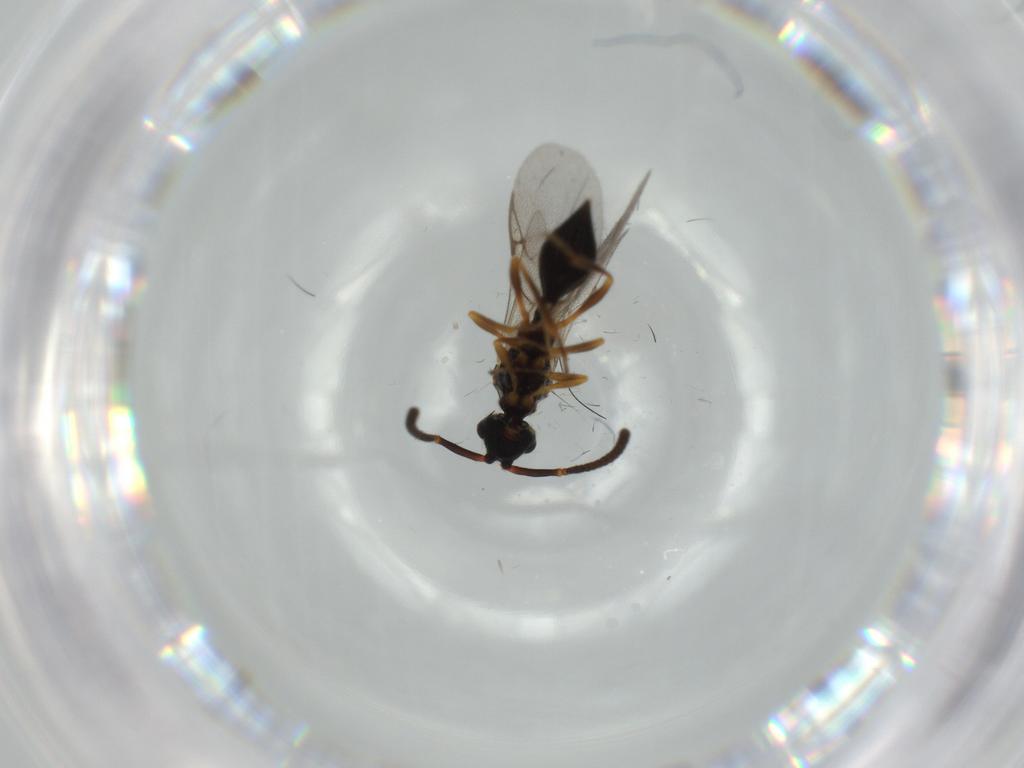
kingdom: Animalia
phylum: Arthropoda
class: Insecta
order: Hymenoptera
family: Diapriidae
